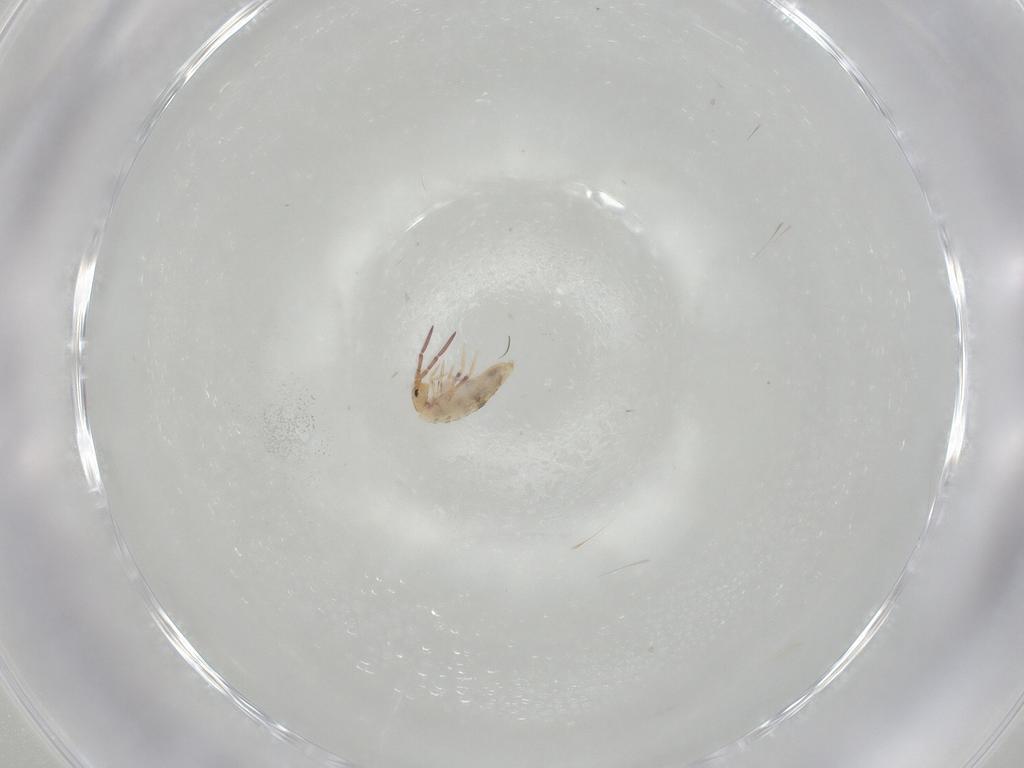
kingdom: Animalia
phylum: Arthropoda
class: Collembola
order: Poduromorpha
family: Hypogastruridae
